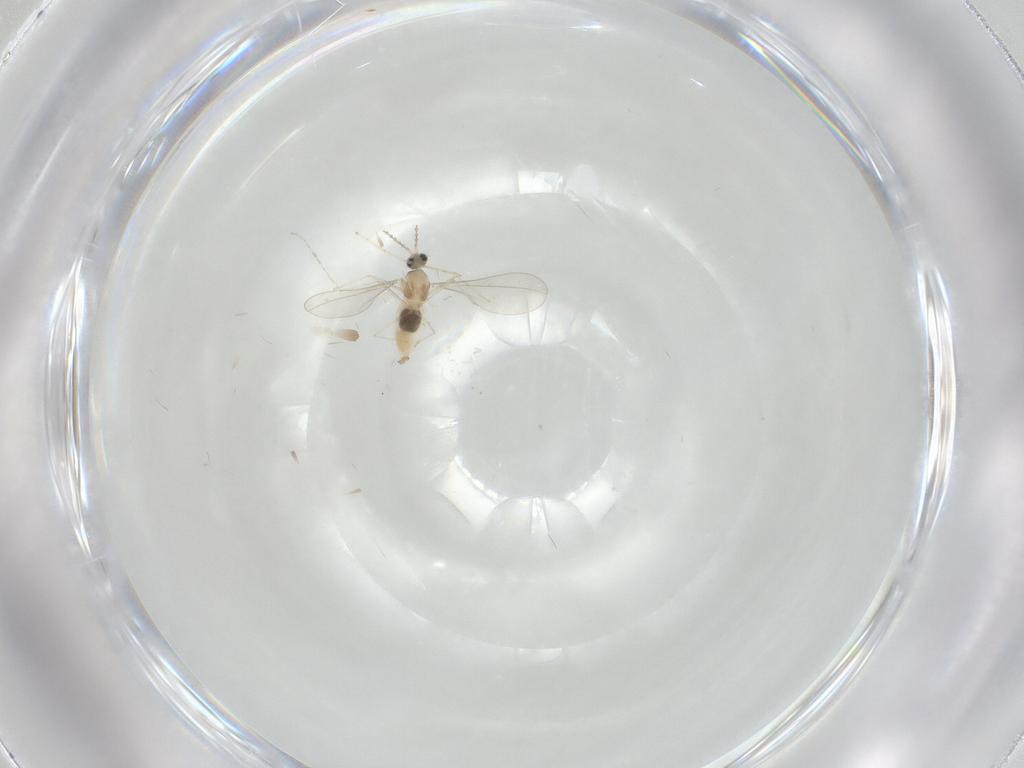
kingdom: Animalia
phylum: Arthropoda
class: Insecta
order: Diptera
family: Cecidomyiidae
